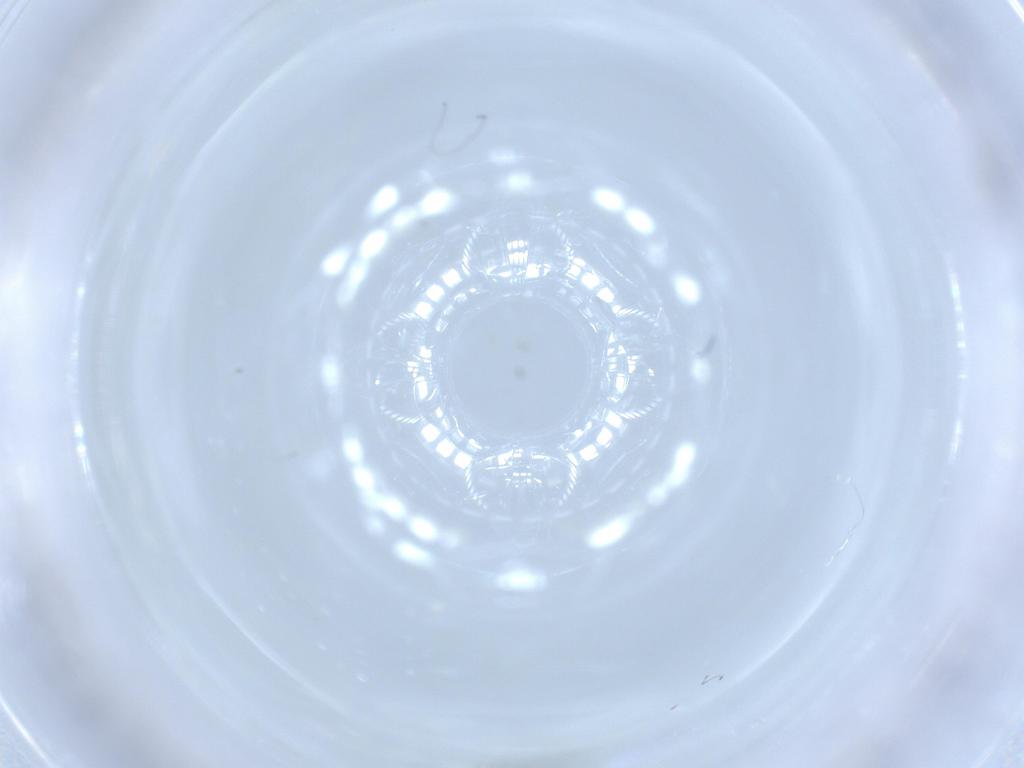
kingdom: Animalia
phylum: Arthropoda
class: Insecta
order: Diptera
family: Chironomidae
